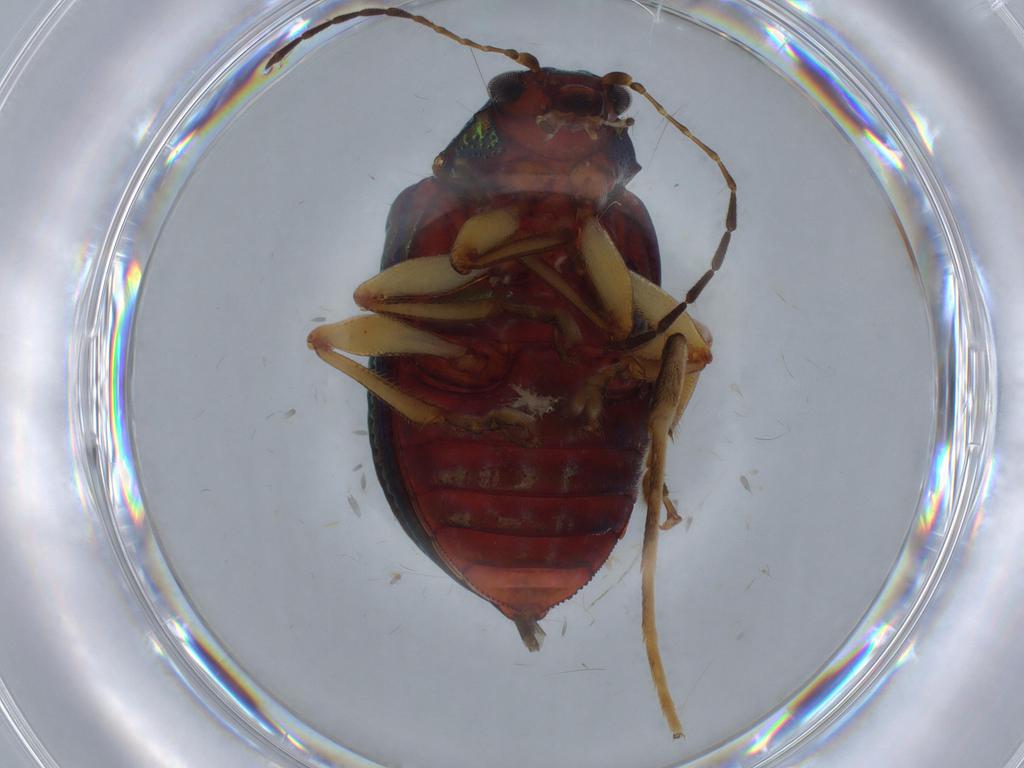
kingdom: Animalia
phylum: Arthropoda
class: Insecta
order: Coleoptera
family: Chrysomelidae
